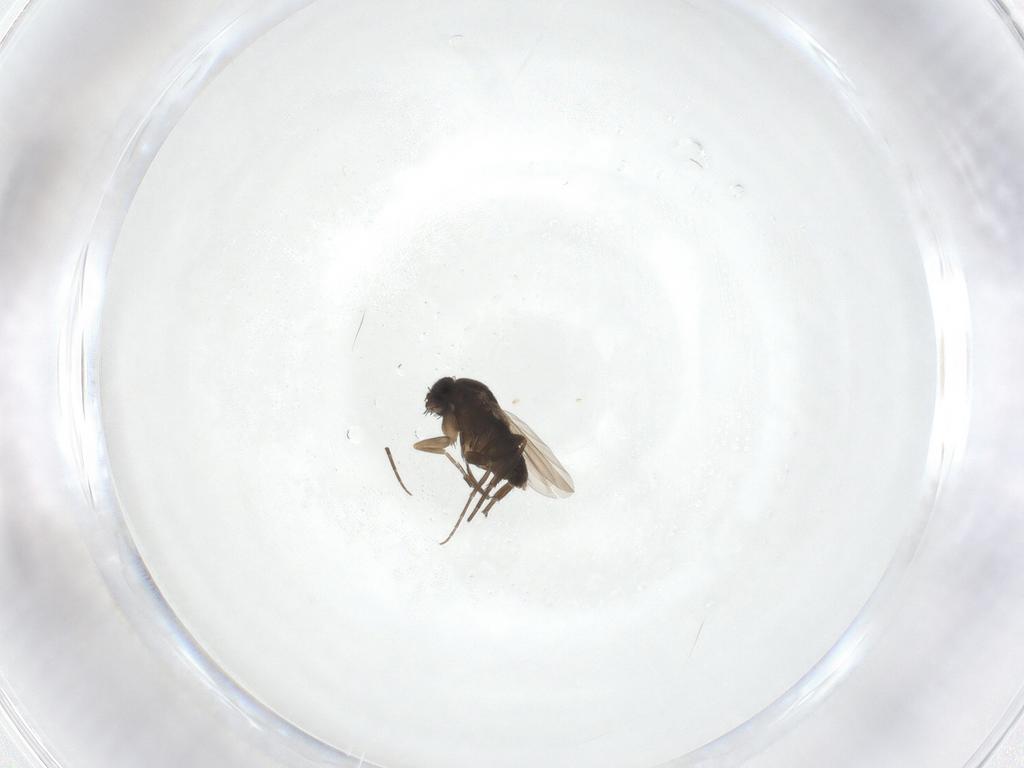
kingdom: Animalia
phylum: Arthropoda
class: Insecta
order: Diptera
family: Phoridae
